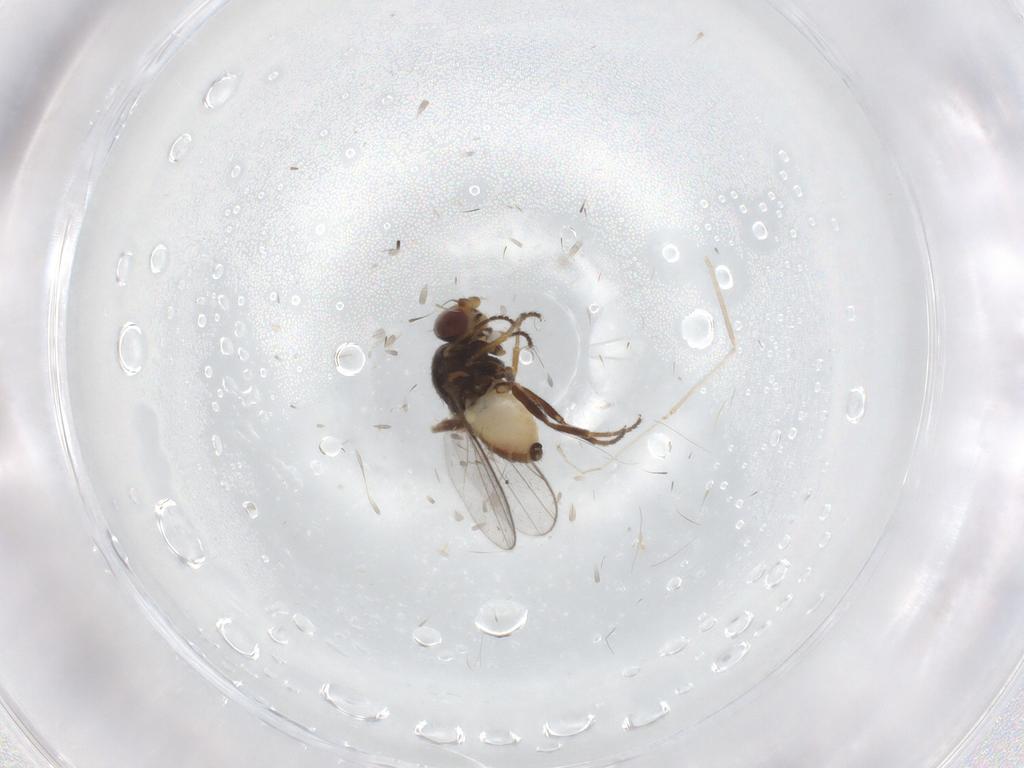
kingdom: Animalia
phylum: Arthropoda
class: Insecta
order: Diptera
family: Chloropidae
